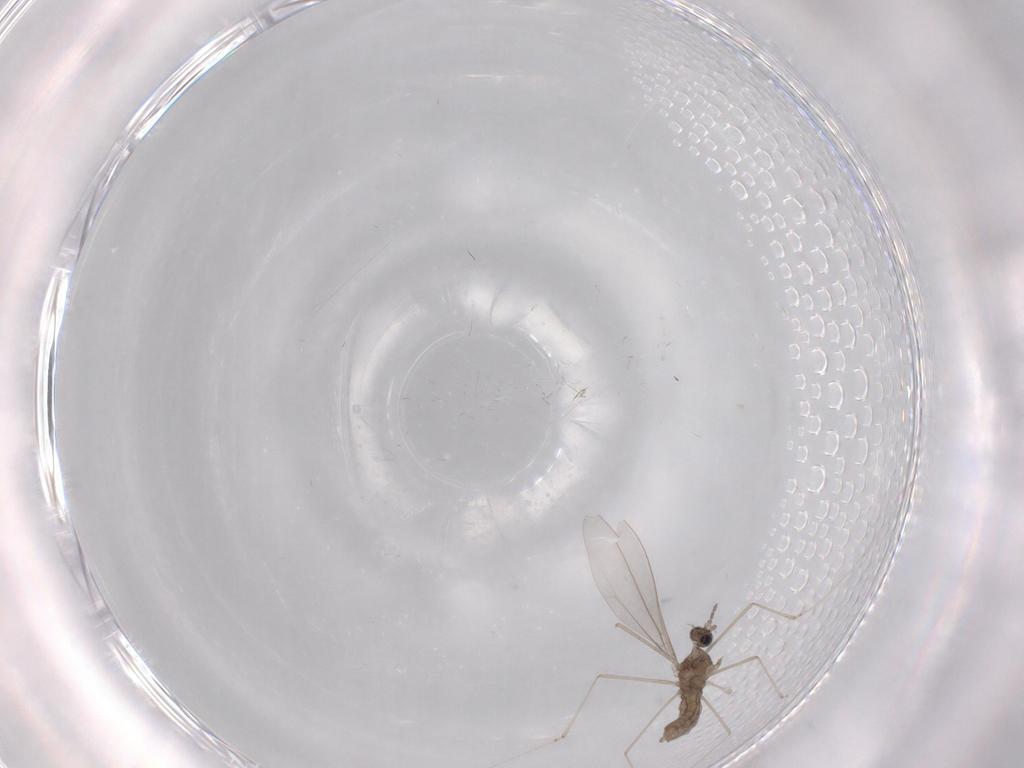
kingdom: Animalia
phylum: Arthropoda
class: Insecta
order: Diptera
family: Cecidomyiidae
